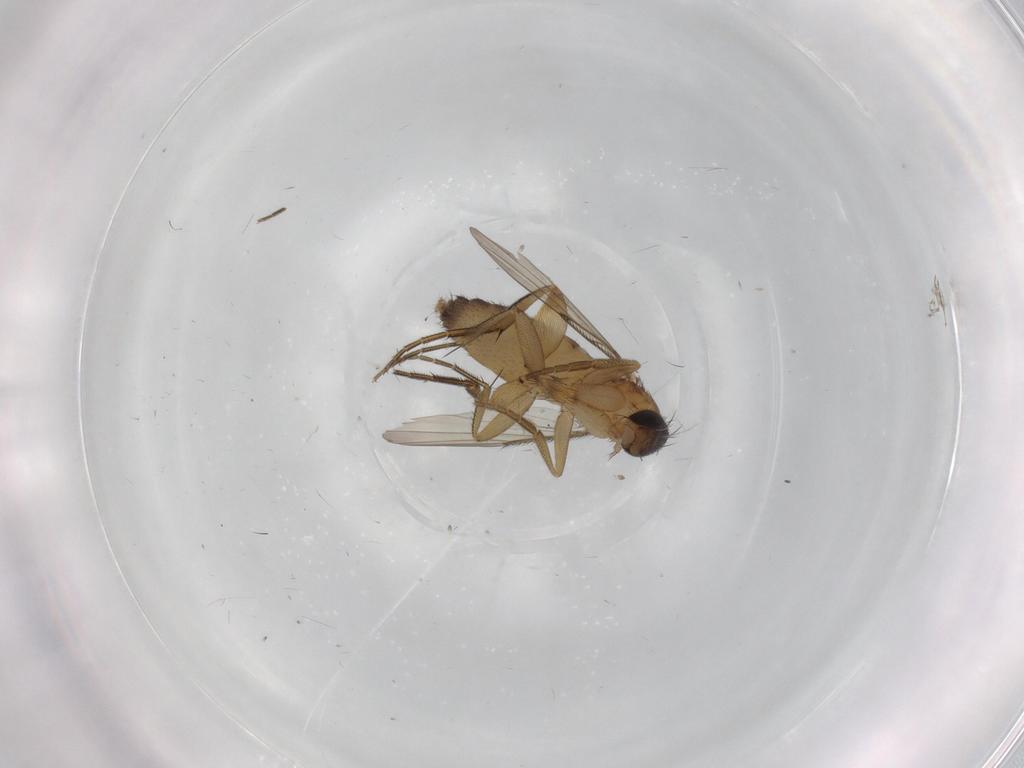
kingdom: Animalia
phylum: Arthropoda
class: Insecta
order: Diptera
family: Phoridae
